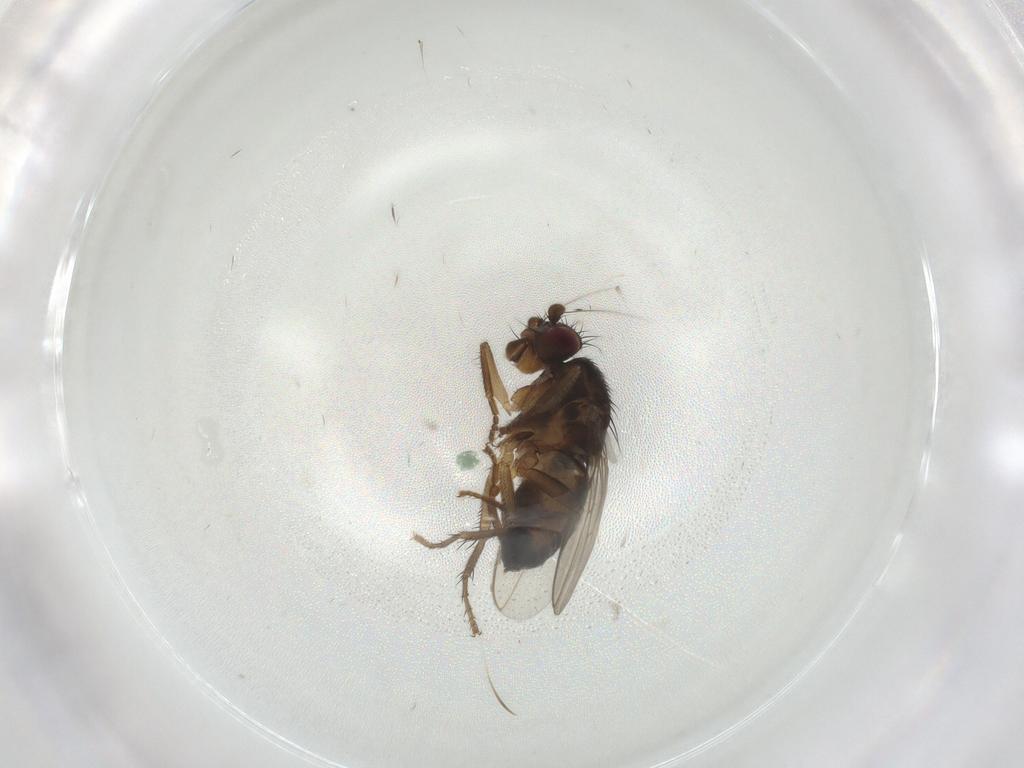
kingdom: Animalia
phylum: Arthropoda
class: Insecta
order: Diptera
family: Sphaeroceridae
